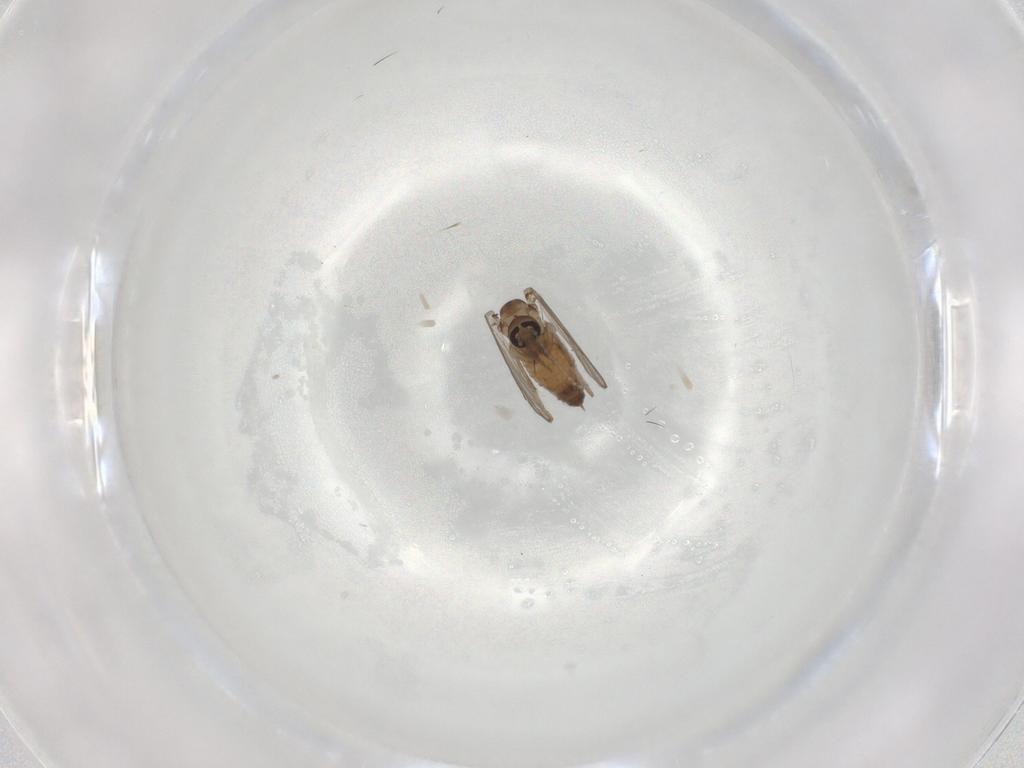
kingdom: Animalia
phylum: Arthropoda
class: Insecta
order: Diptera
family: Psychodidae
